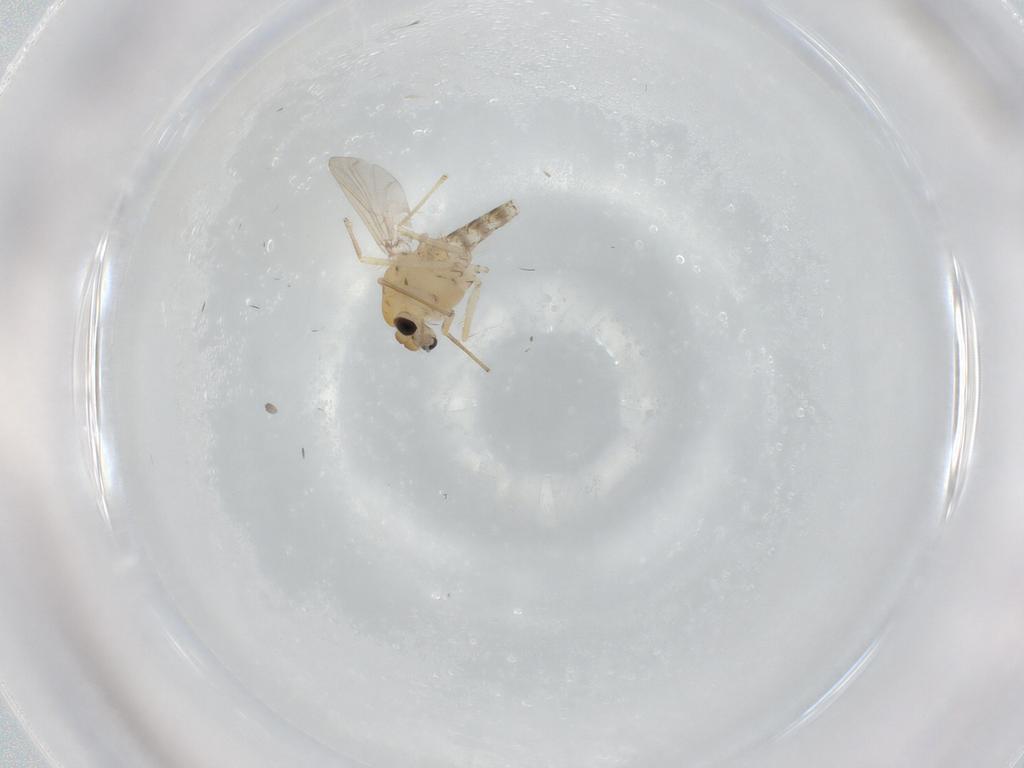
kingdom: Animalia
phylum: Arthropoda
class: Insecta
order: Diptera
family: Chironomidae
